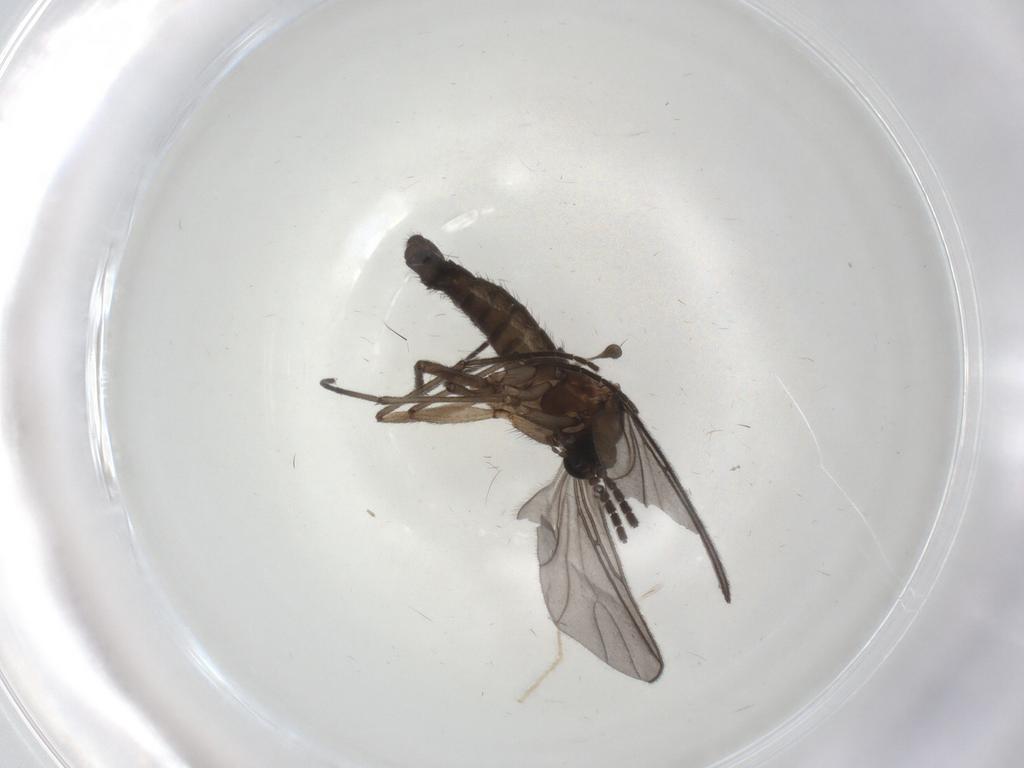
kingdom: Animalia
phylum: Arthropoda
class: Insecta
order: Diptera
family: Sciaridae
